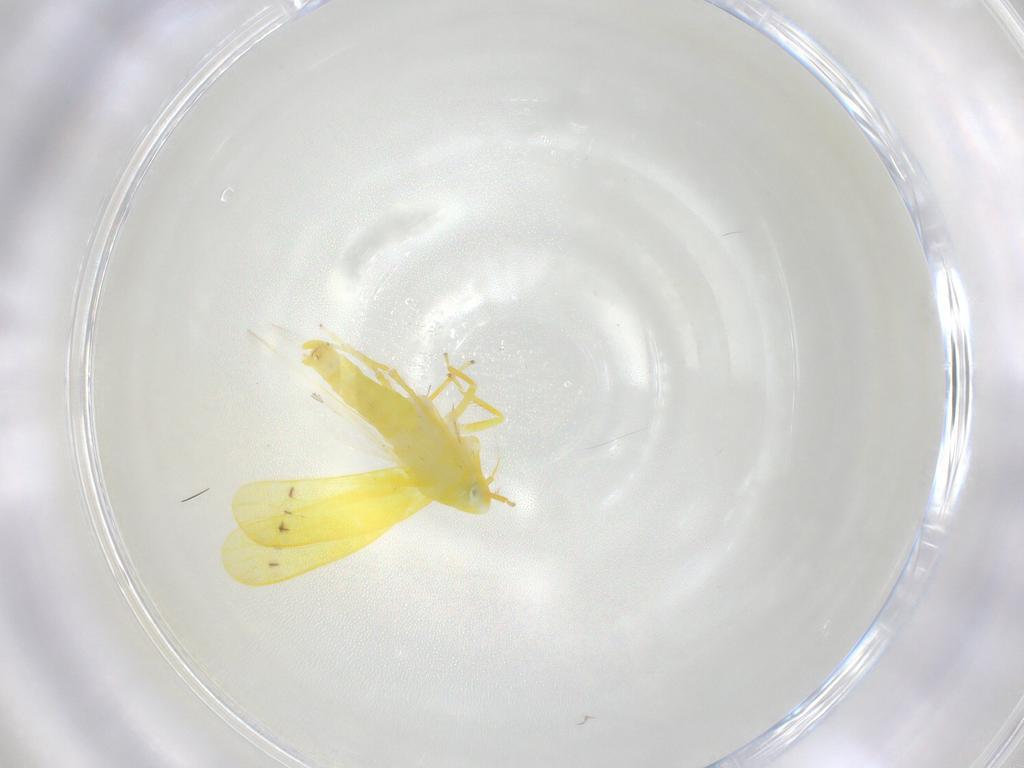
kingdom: Animalia
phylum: Arthropoda
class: Insecta
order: Hemiptera
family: Cicadellidae
